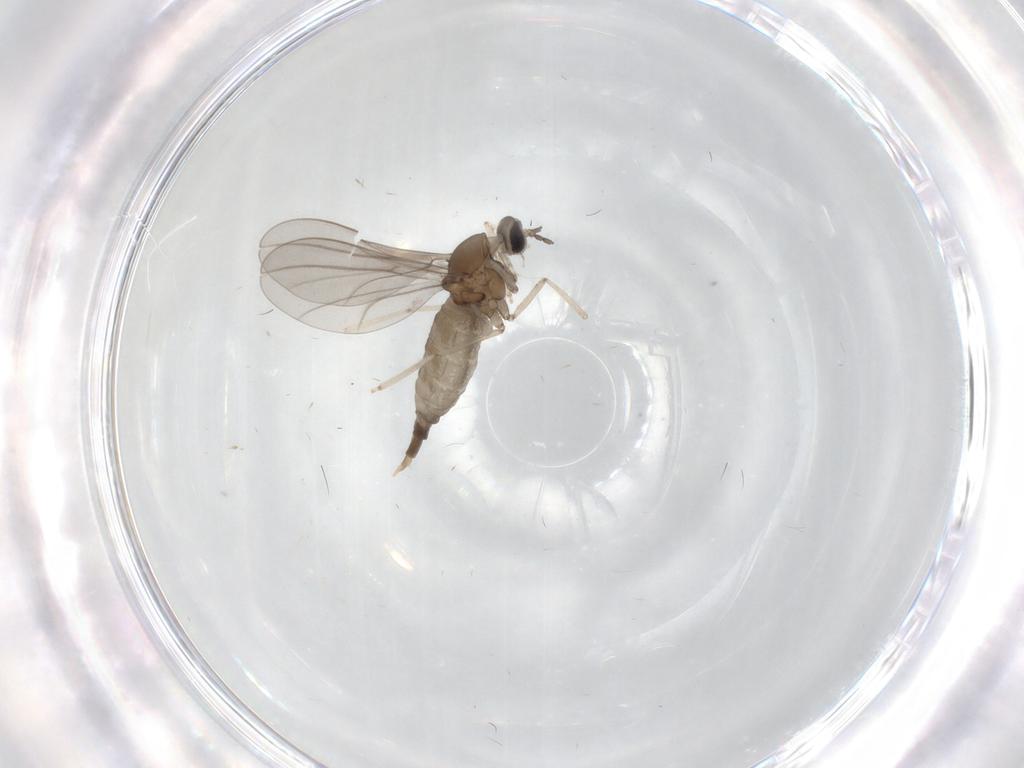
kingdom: Animalia
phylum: Arthropoda
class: Insecta
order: Diptera
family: Cecidomyiidae
